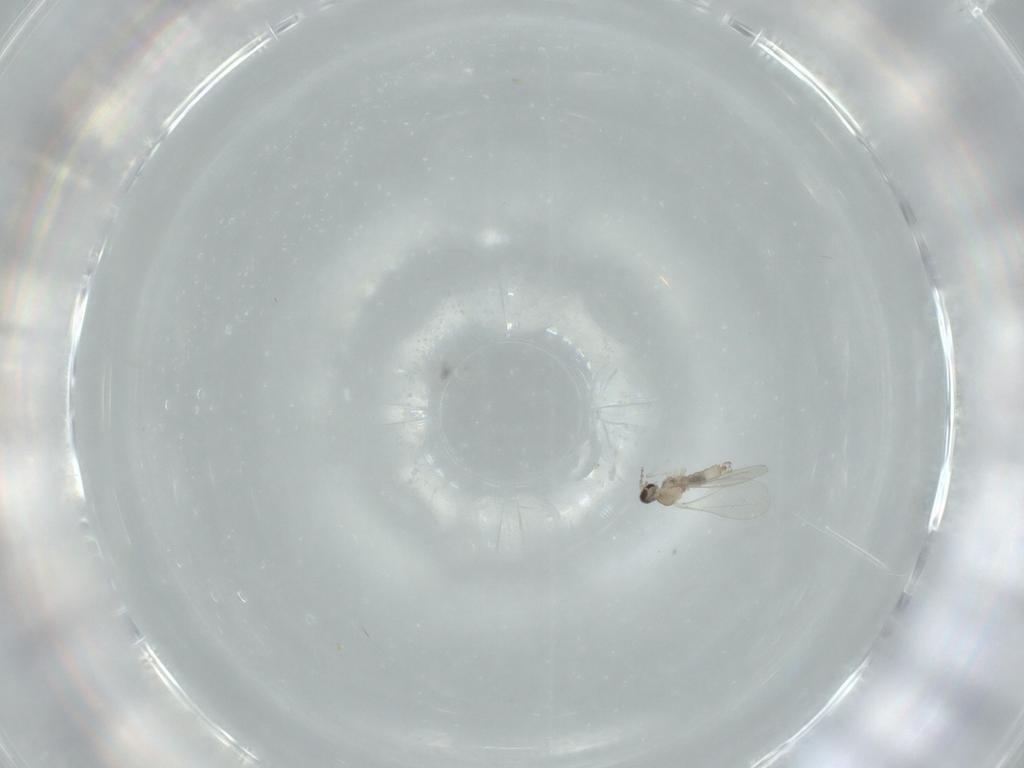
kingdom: Animalia
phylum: Arthropoda
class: Insecta
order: Diptera
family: Cecidomyiidae
